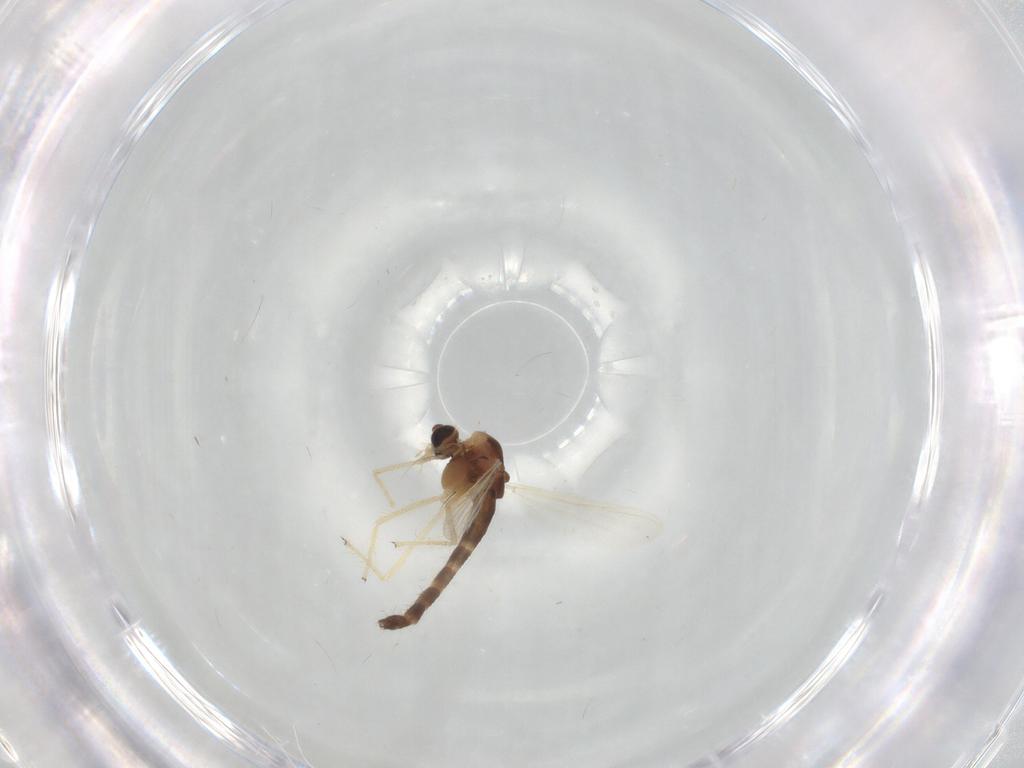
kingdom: Animalia
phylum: Arthropoda
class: Insecta
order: Diptera
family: Chironomidae
